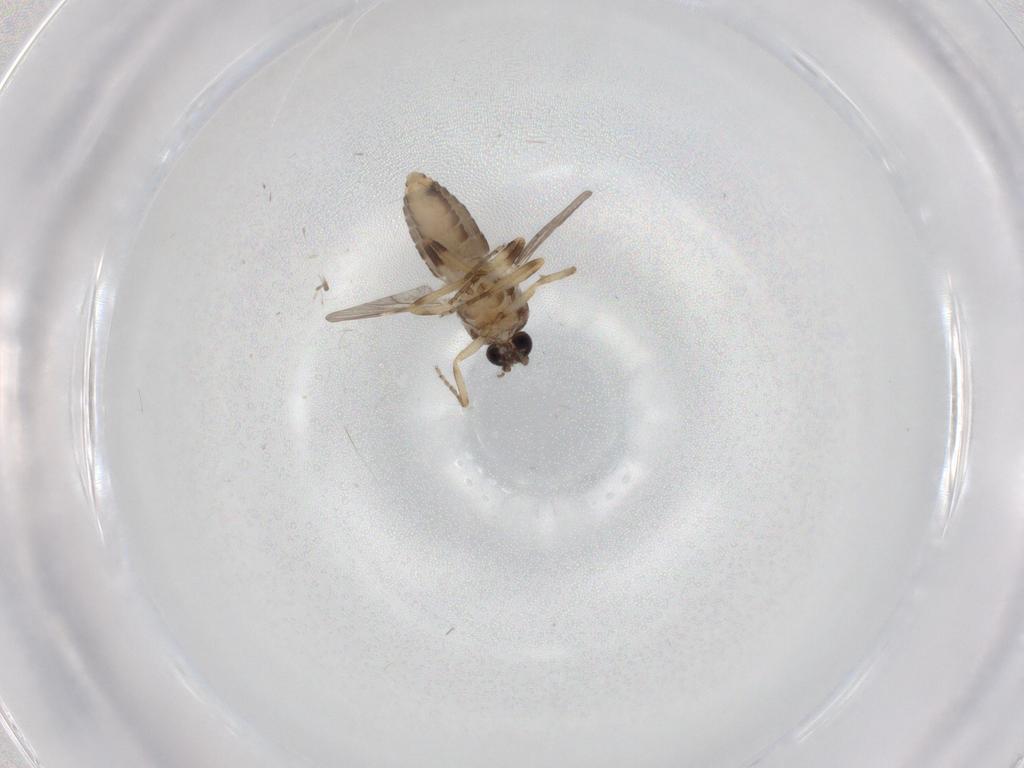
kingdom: Animalia
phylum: Arthropoda
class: Insecta
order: Diptera
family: Ceratopogonidae
